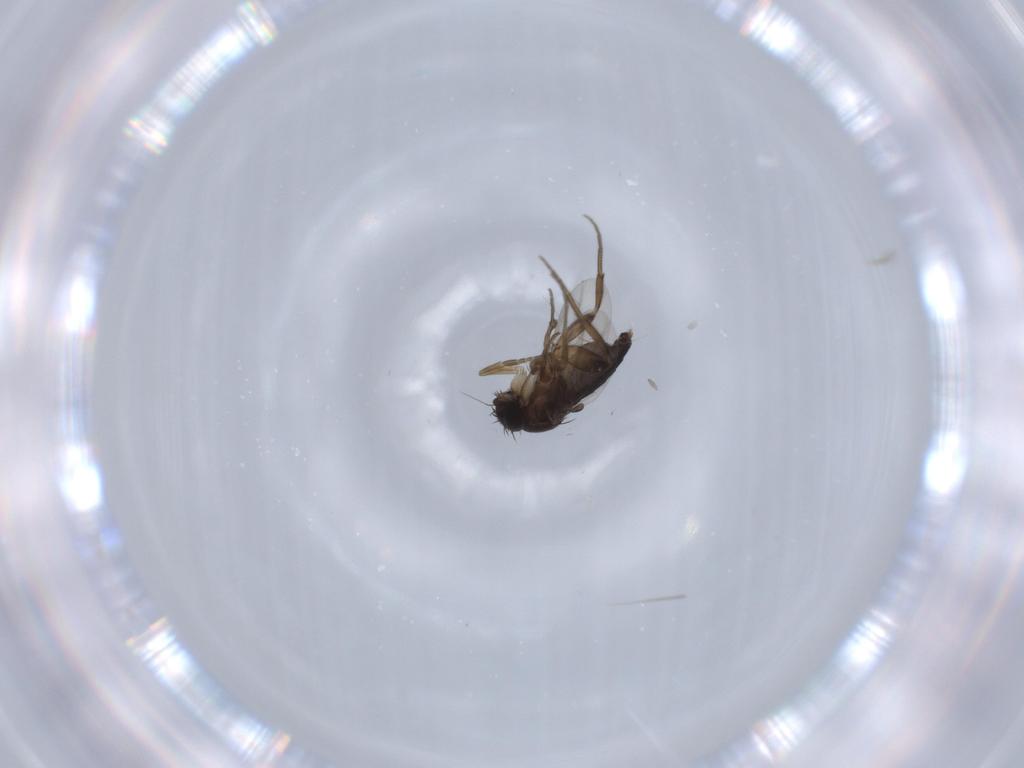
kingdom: Animalia
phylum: Arthropoda
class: Insecta
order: Diptera
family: Phoridae
